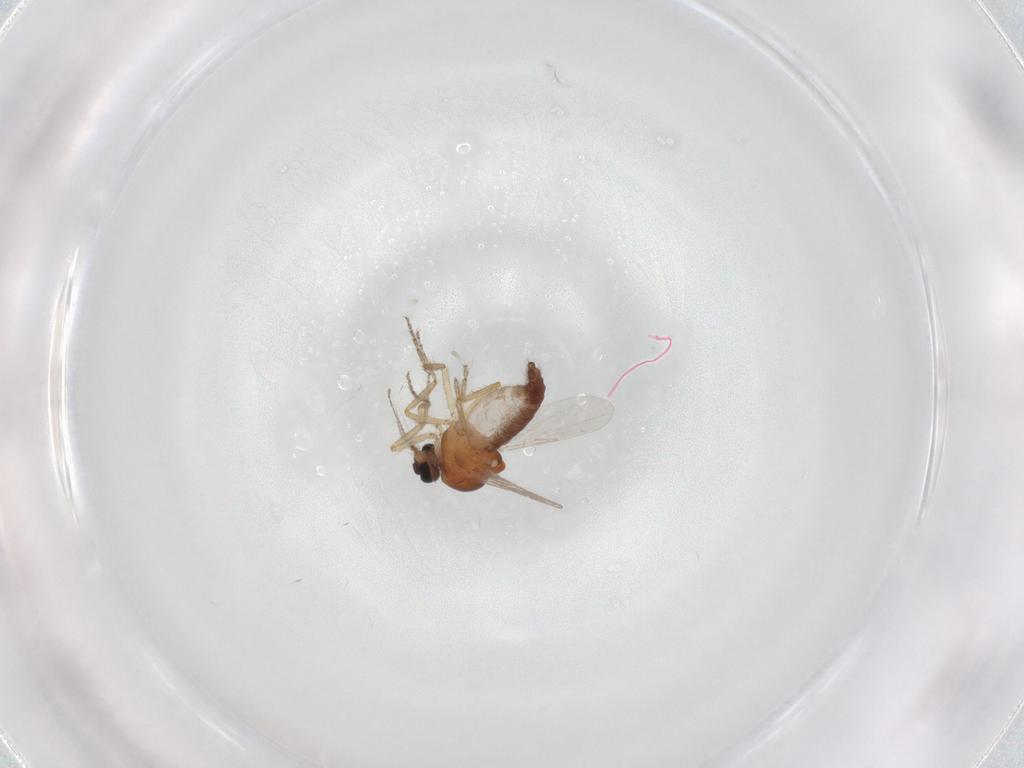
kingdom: Animalia
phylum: Arthropoda
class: Insecta
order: Diptera
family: Ceratopogonidae
